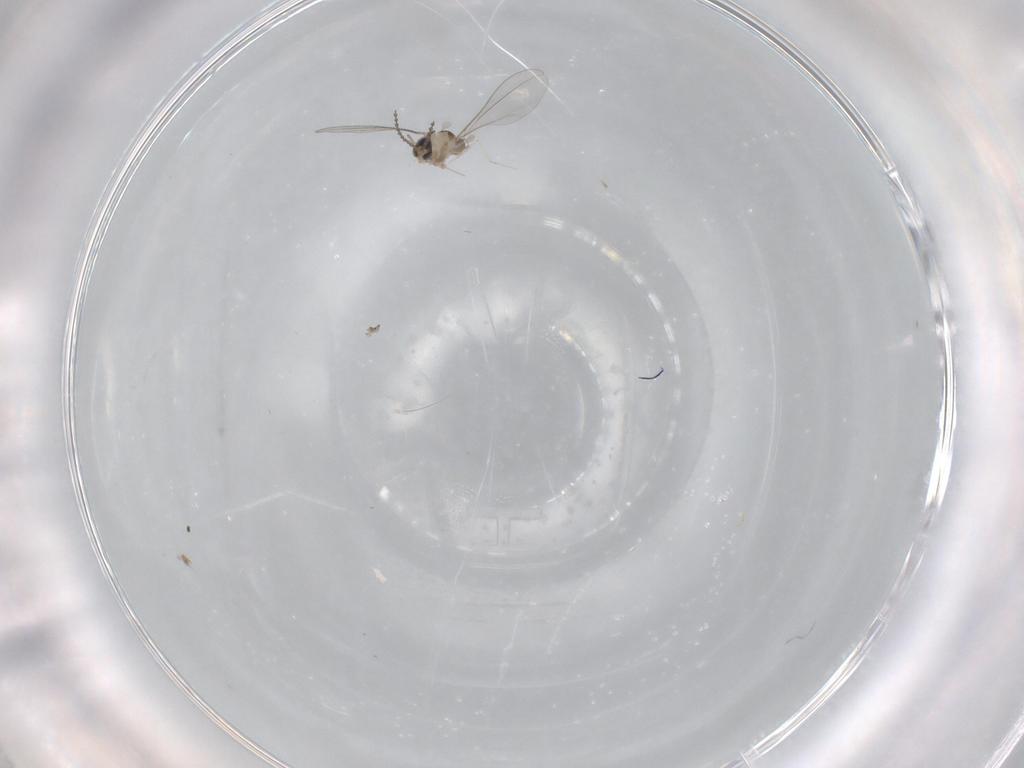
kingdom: Animalia
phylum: Arthropoda
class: Insecta
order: Diptera
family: Cecidomyiidae
